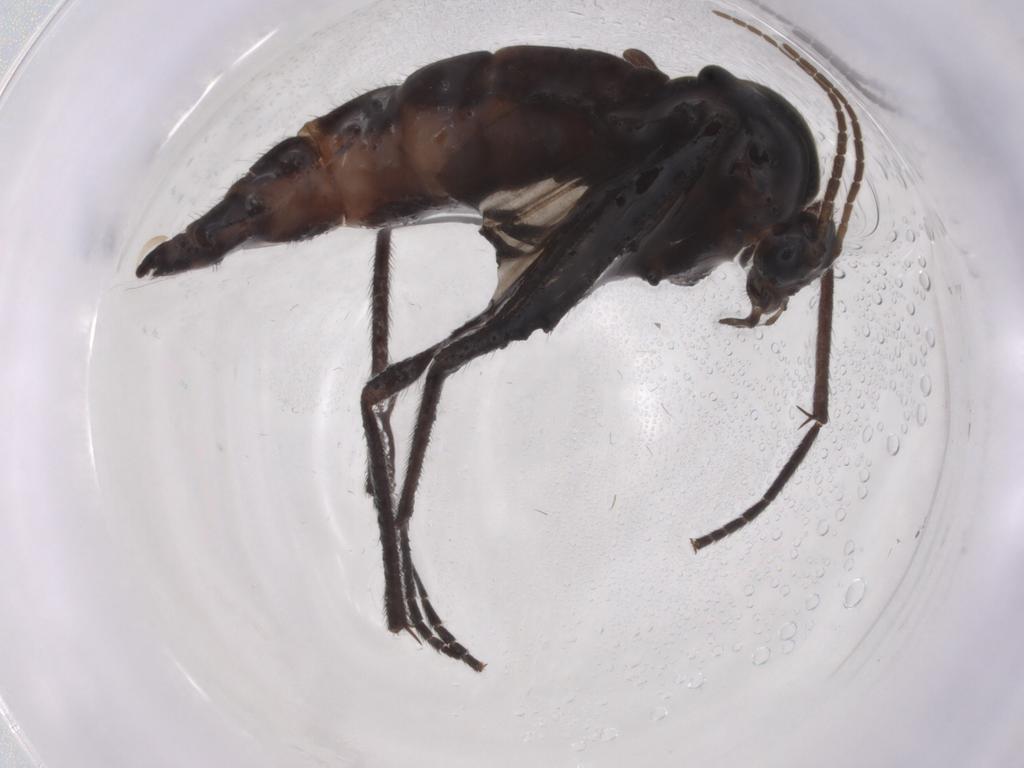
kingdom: Animalia
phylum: Arthropoda
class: Insecta
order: Diptera
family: Sciaridae
